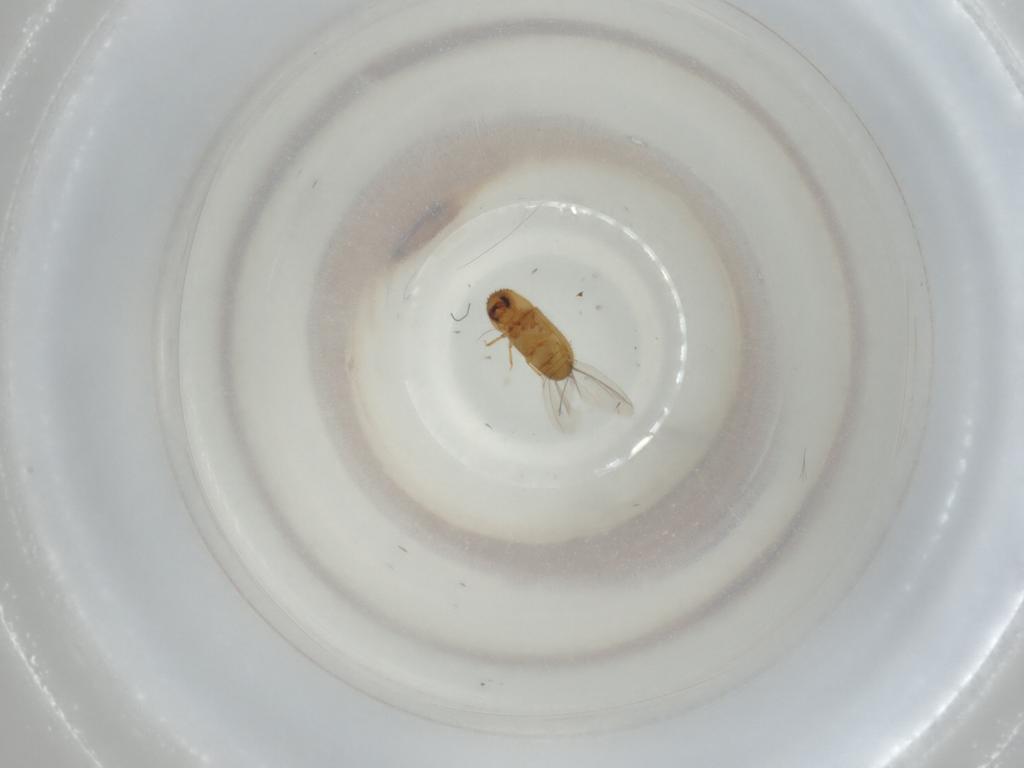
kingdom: Animalia
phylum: Arthropoda
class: Insecta
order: Coleoptera
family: Curculionidae
